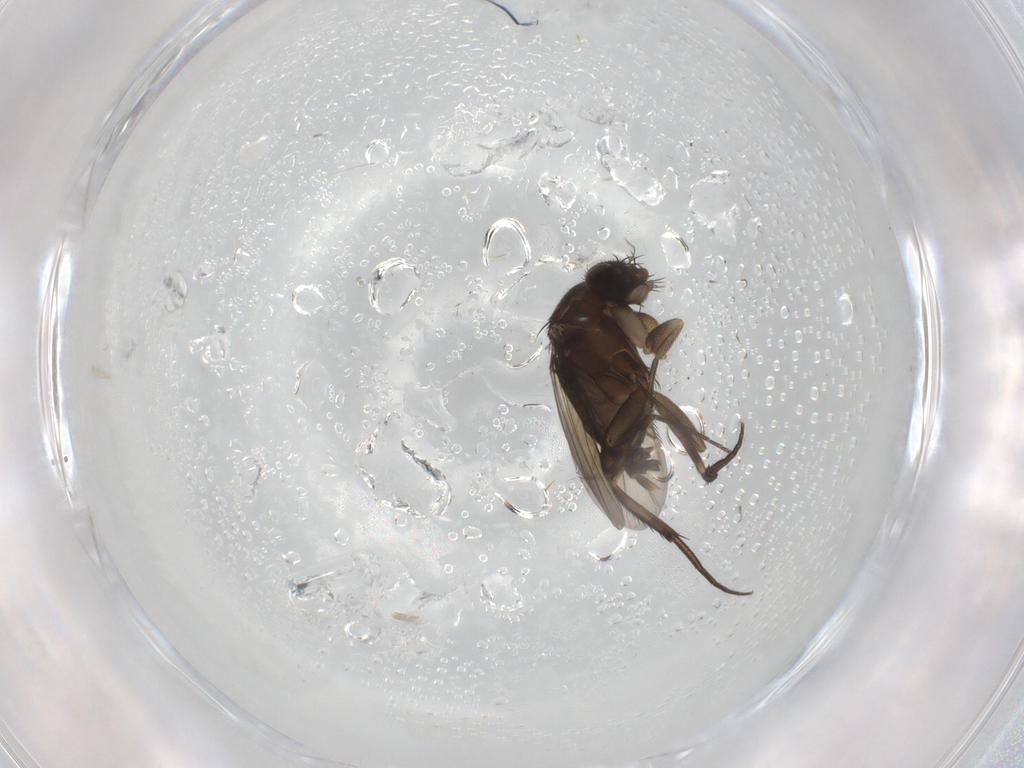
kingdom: Animalia
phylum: Arthropoda
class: Insecta
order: Diptera
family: Phoridae
